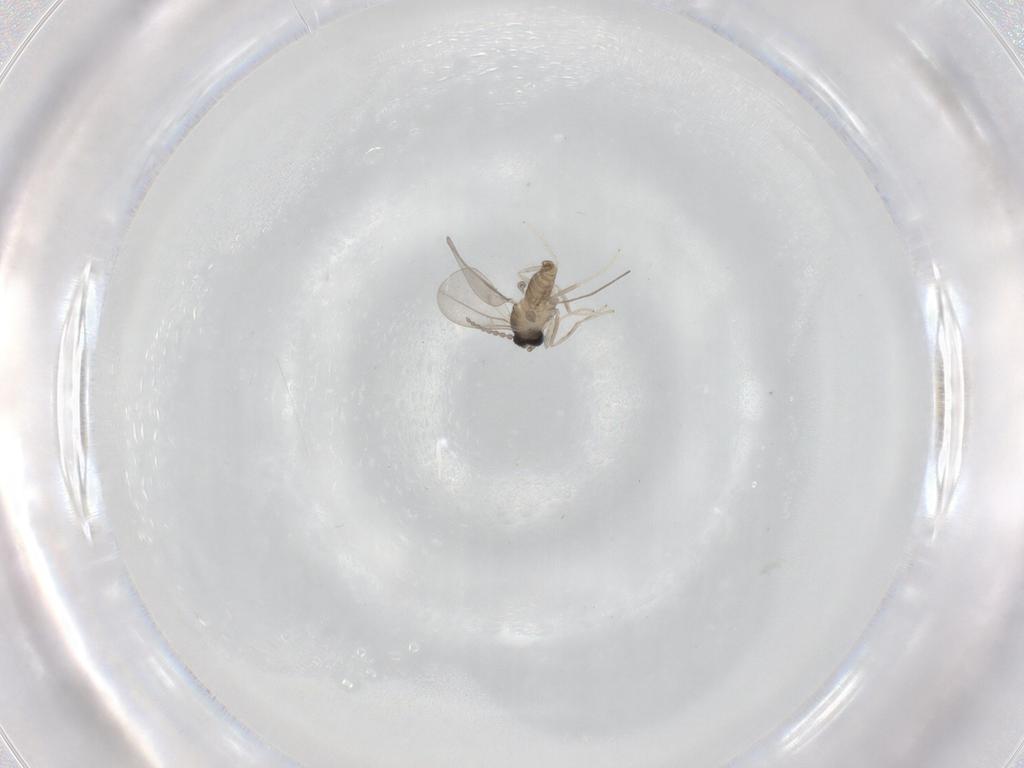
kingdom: Animalia
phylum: Arthropoda
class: Insecta
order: Diptera
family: Cecidomyiidae
